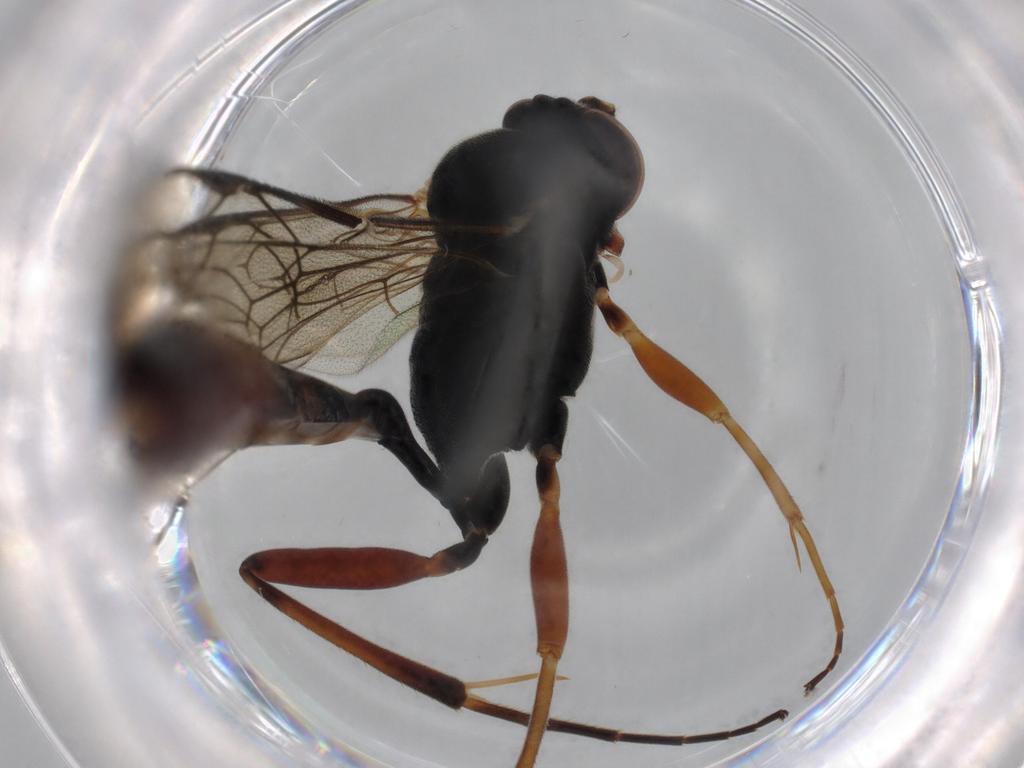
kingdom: Animalia
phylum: Arthropoda
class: Insecta
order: Hymenoptera
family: Ichneumonidae
